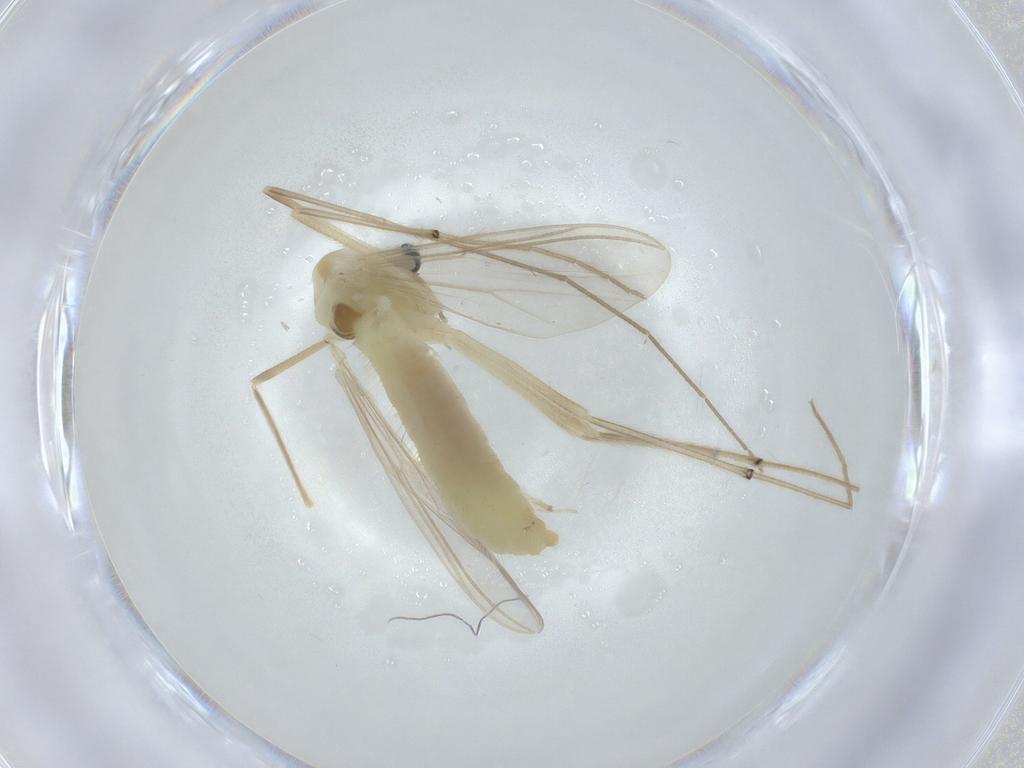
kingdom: Animalia
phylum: Arthropoda
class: Insecta
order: Diptera
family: Chironomidae
